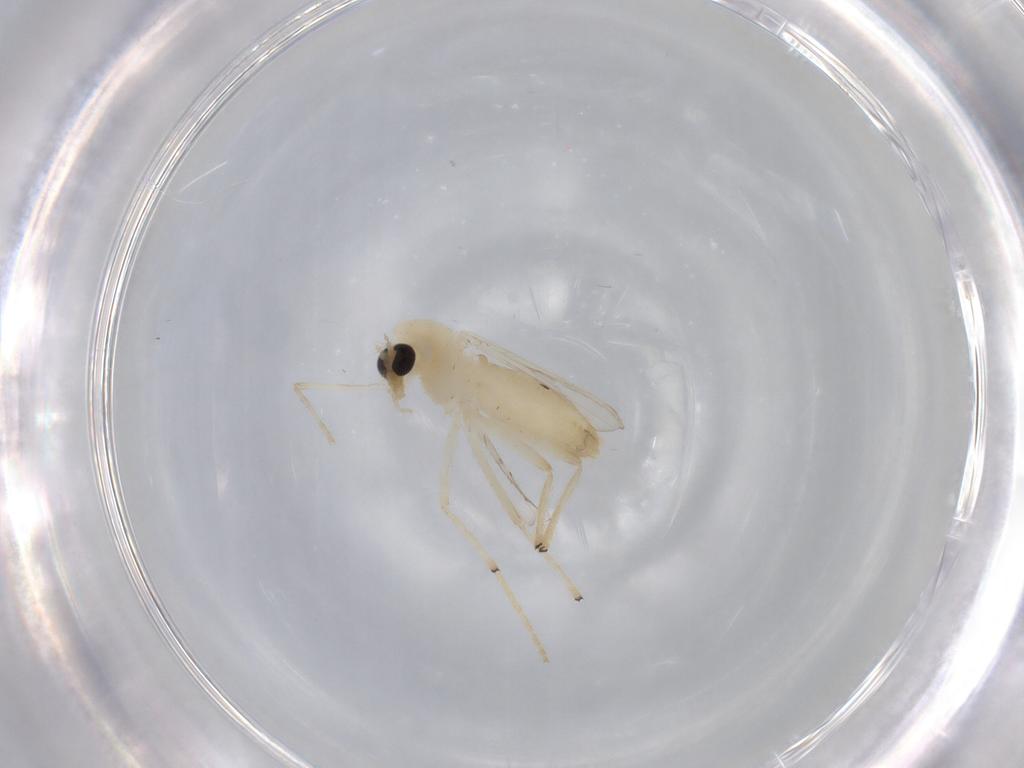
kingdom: Animalia
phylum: Arthropoda
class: Insecta
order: Diptera
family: Chironomidae
